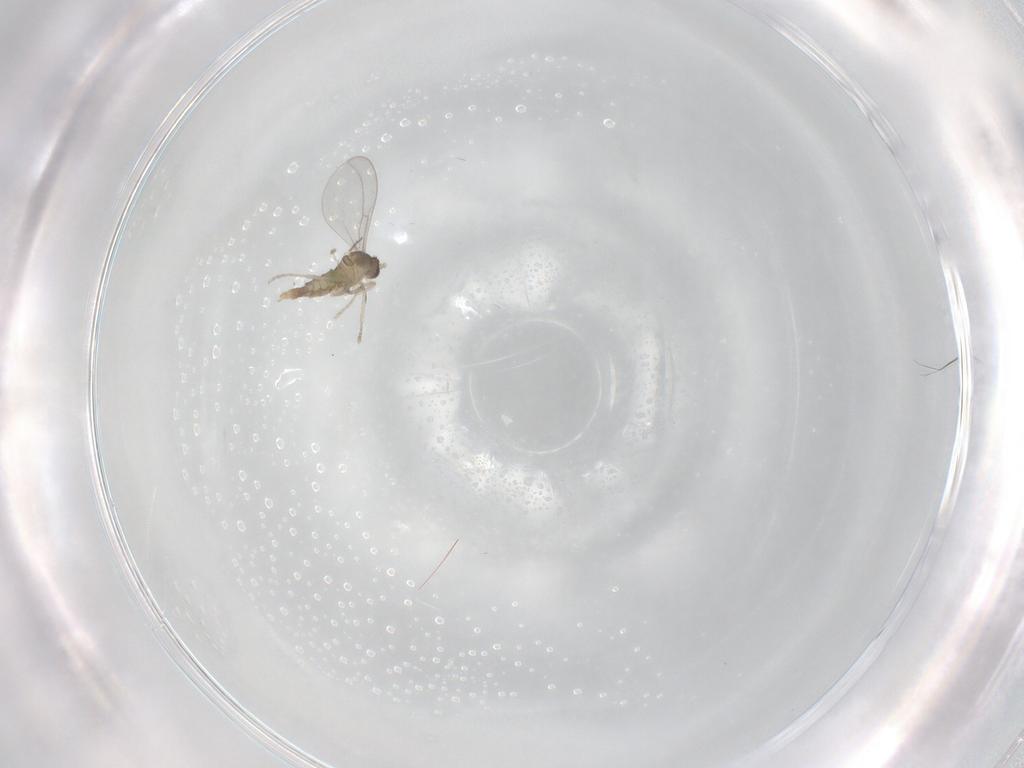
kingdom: Animalia
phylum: Arthropoda
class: Insecta
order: Diptera
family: Cecidomyiidae
